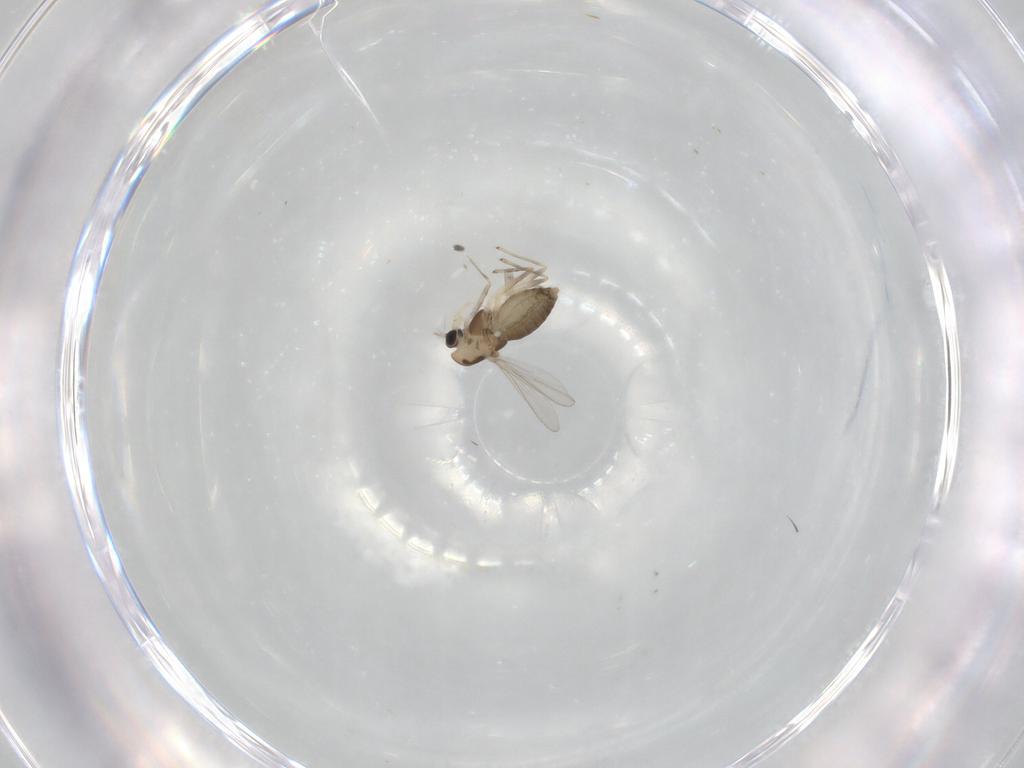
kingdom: Animalia
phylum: Arthropoda
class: Insecta
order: Diptera
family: Chironomidae
